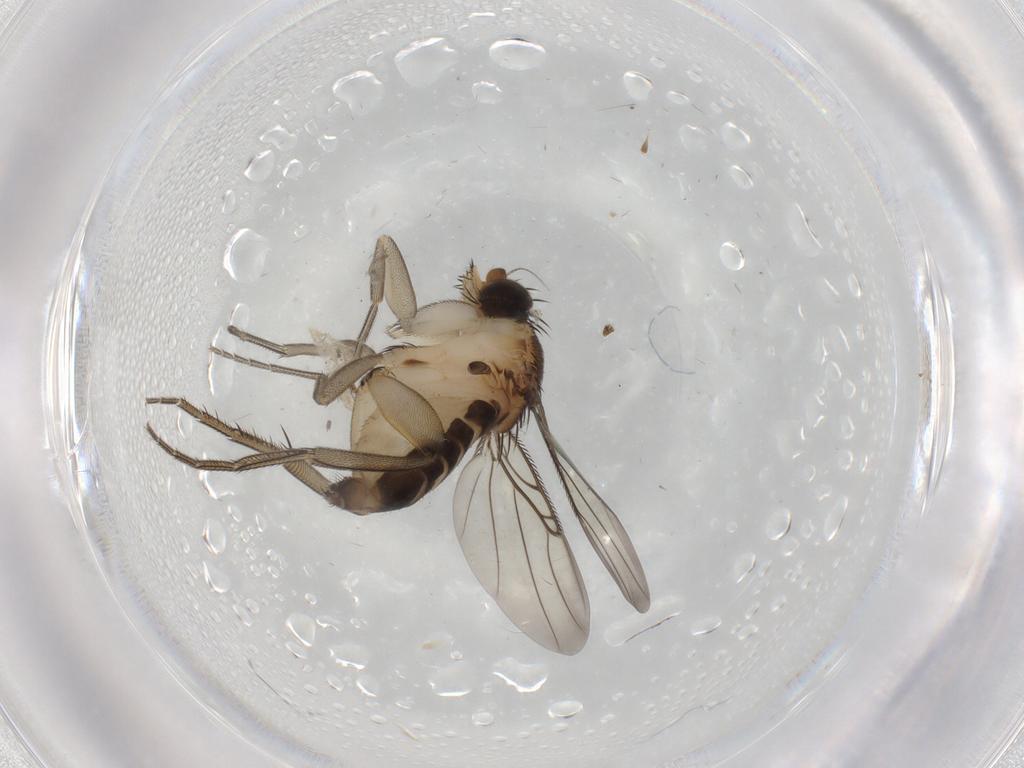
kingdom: Animalia
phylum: Arthropoda
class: Insecta
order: Diptera
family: Phoridae
